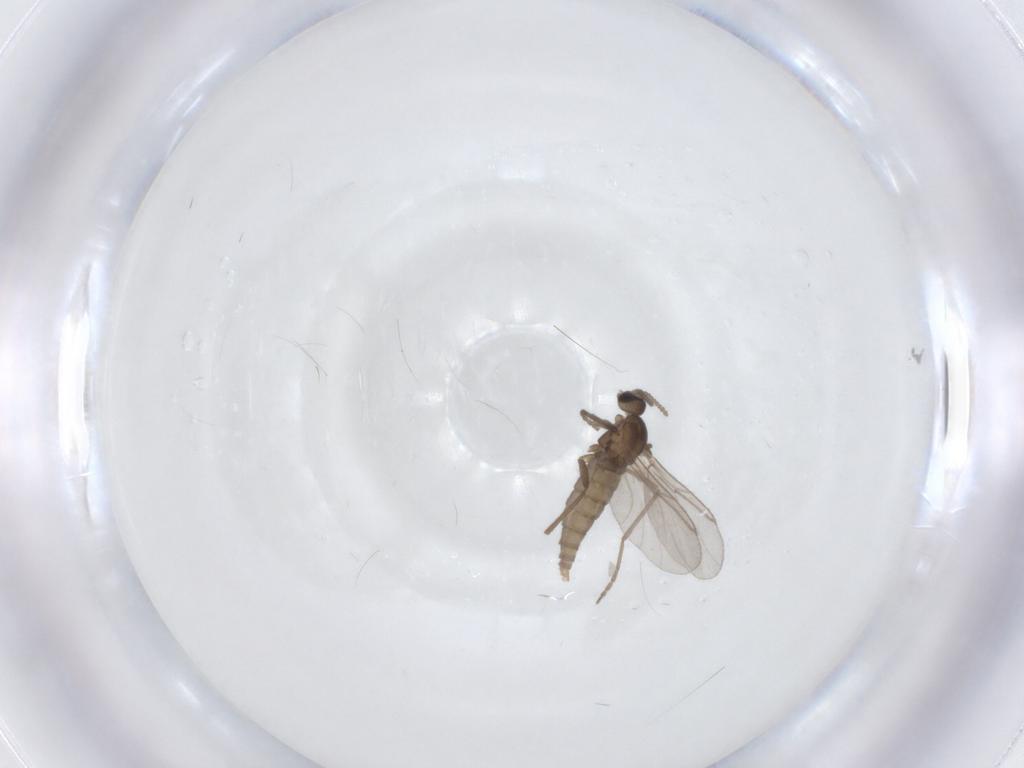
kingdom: Animalia
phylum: Arthropoda
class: Insecta
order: Diptera
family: Cecidomyiidae
